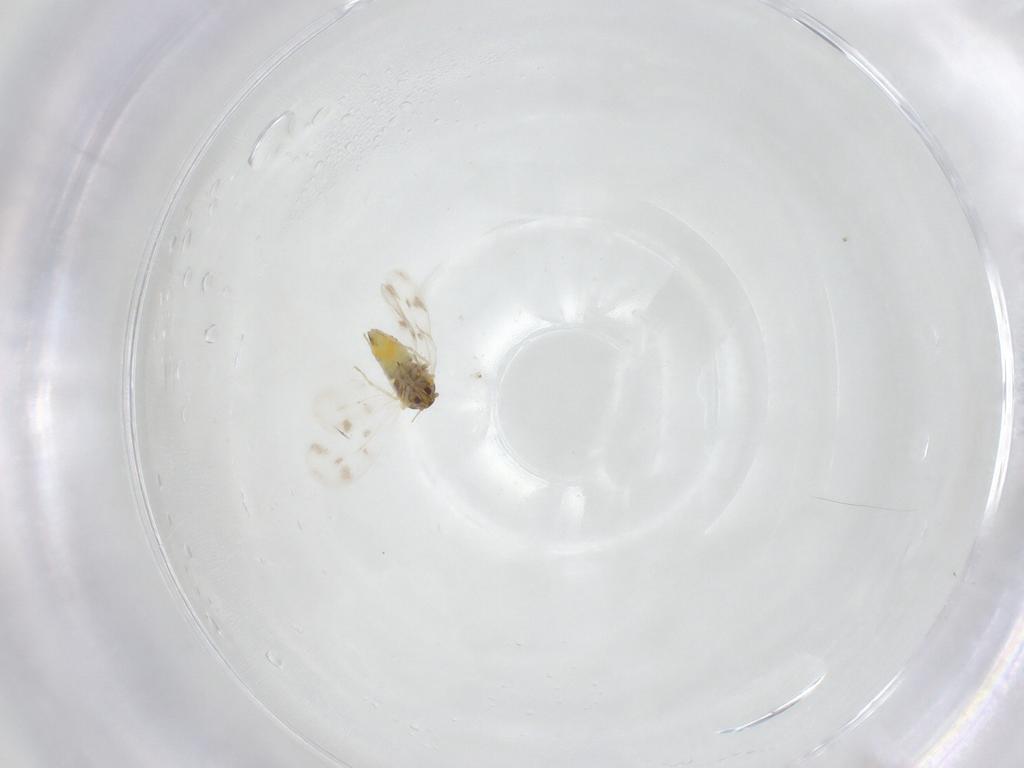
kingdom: Animalia
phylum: Arthropoda
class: Insecta
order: Hemiptera
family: Aleyrodidae
